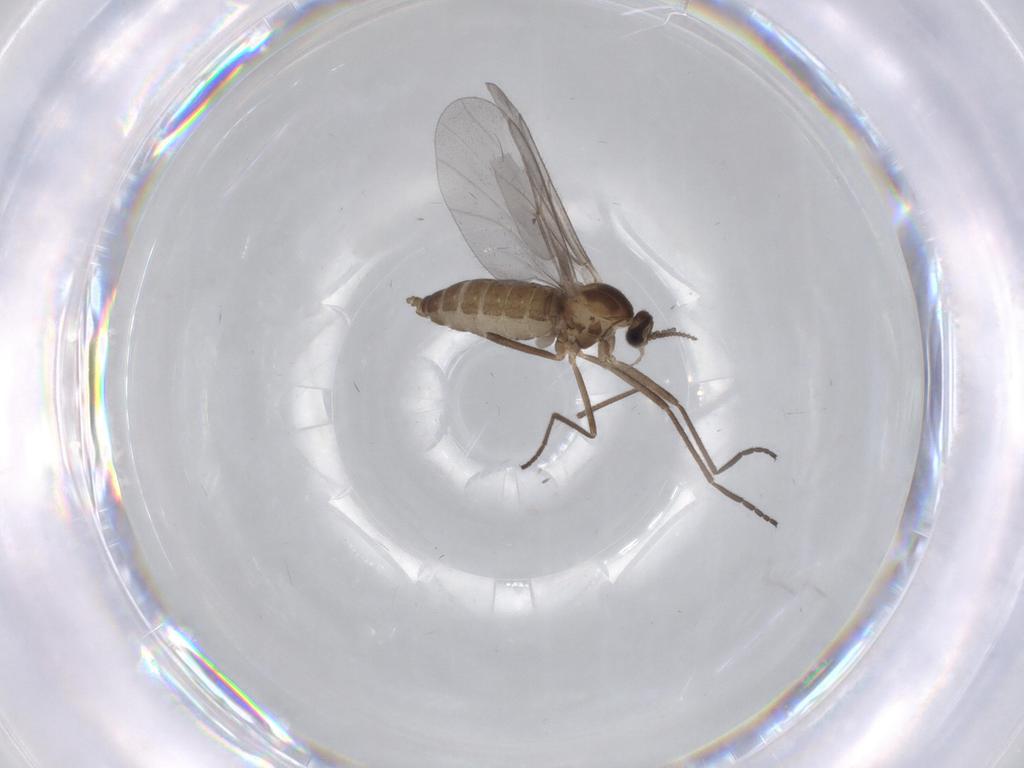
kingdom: Animalia
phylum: Arthropoda
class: Insecta
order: Diptera
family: Cecidomyiidae
